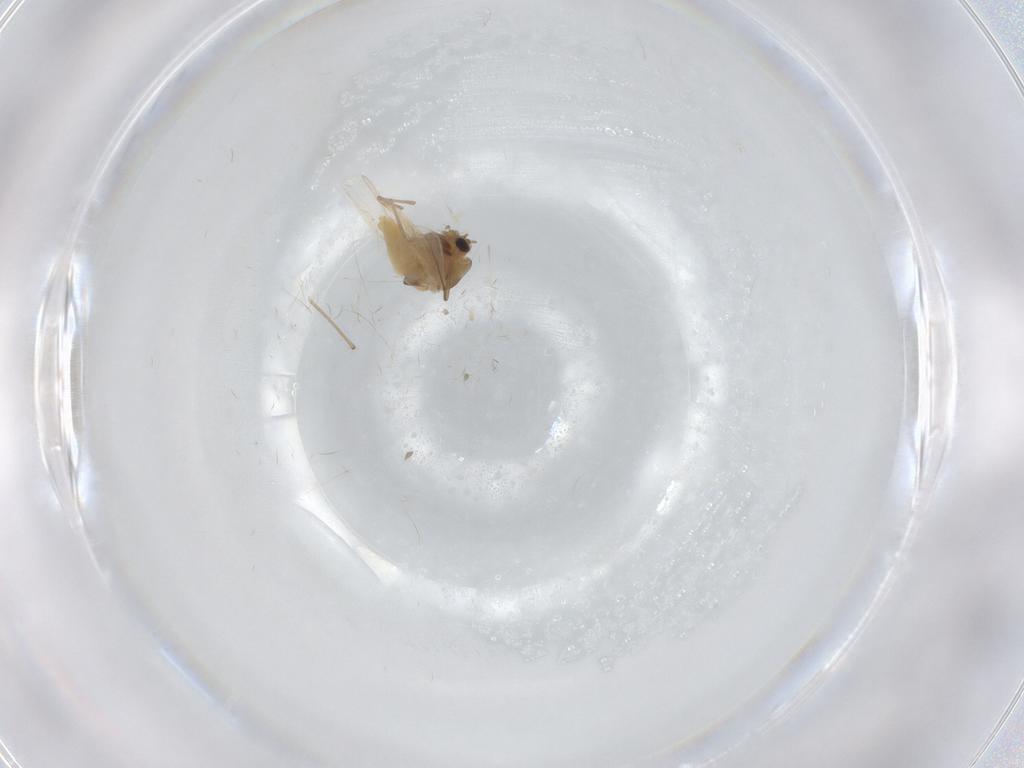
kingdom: Animalia
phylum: Arthropoda
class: Insecta
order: Diptera
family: Chironomidae
